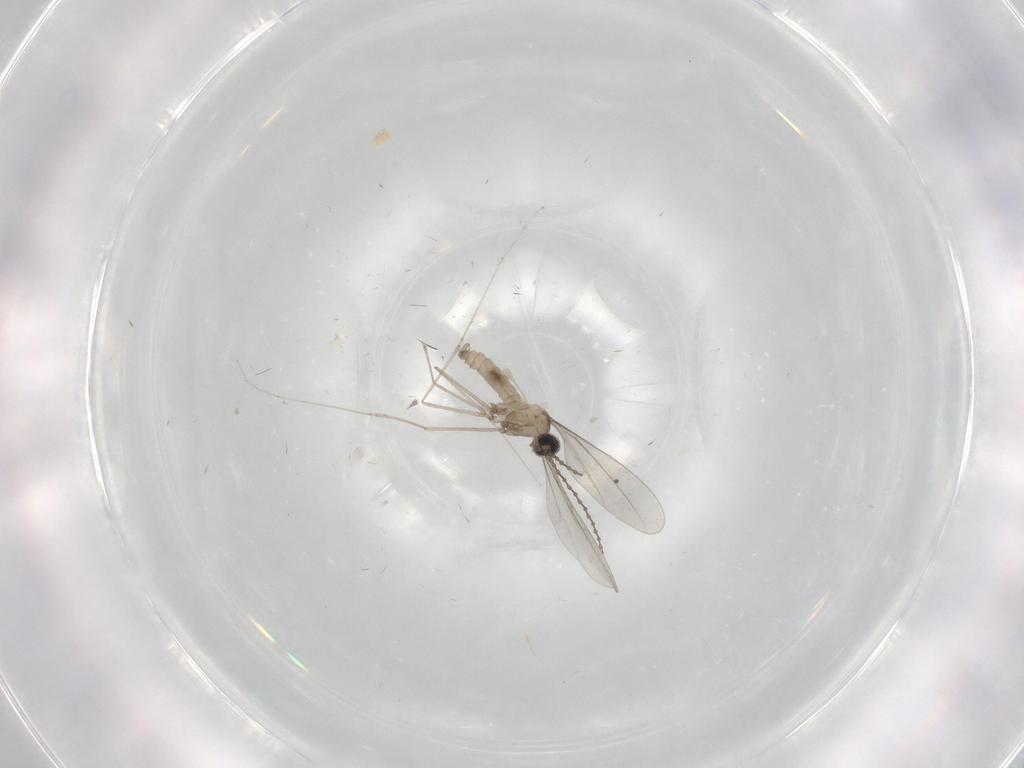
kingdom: Animalia
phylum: Arthropoda
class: Insecta
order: Diptera
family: Cecidomyiidae
